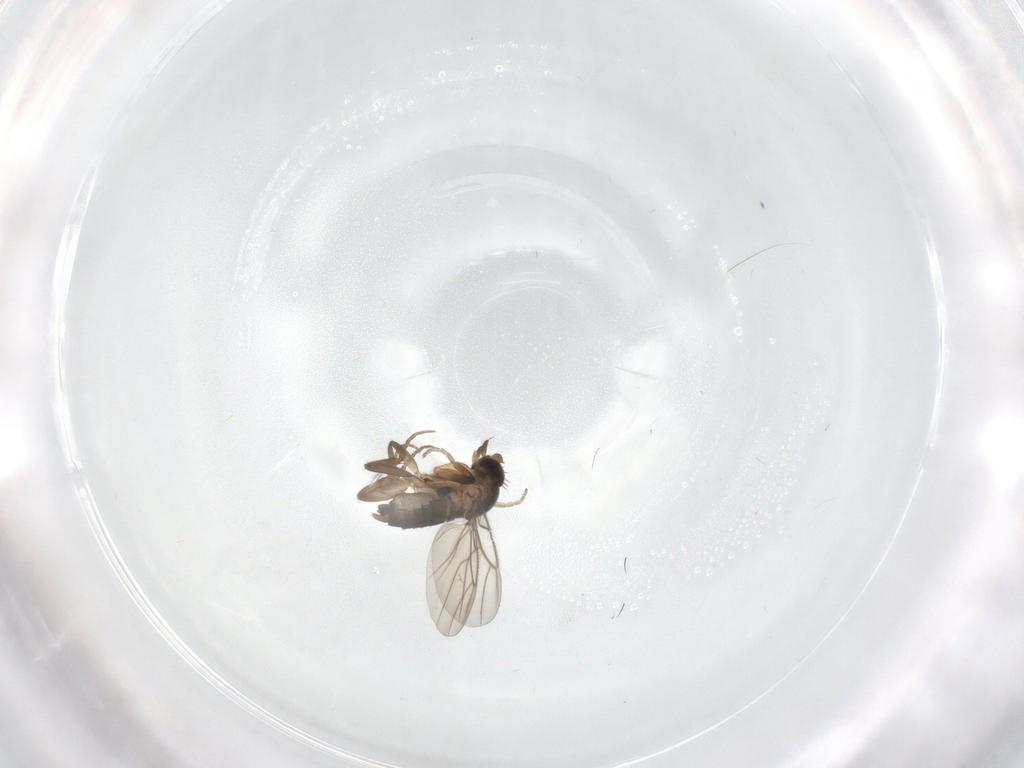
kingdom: Animalia
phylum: Arthropoda
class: Insecta
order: Diptera
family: Phoridae
